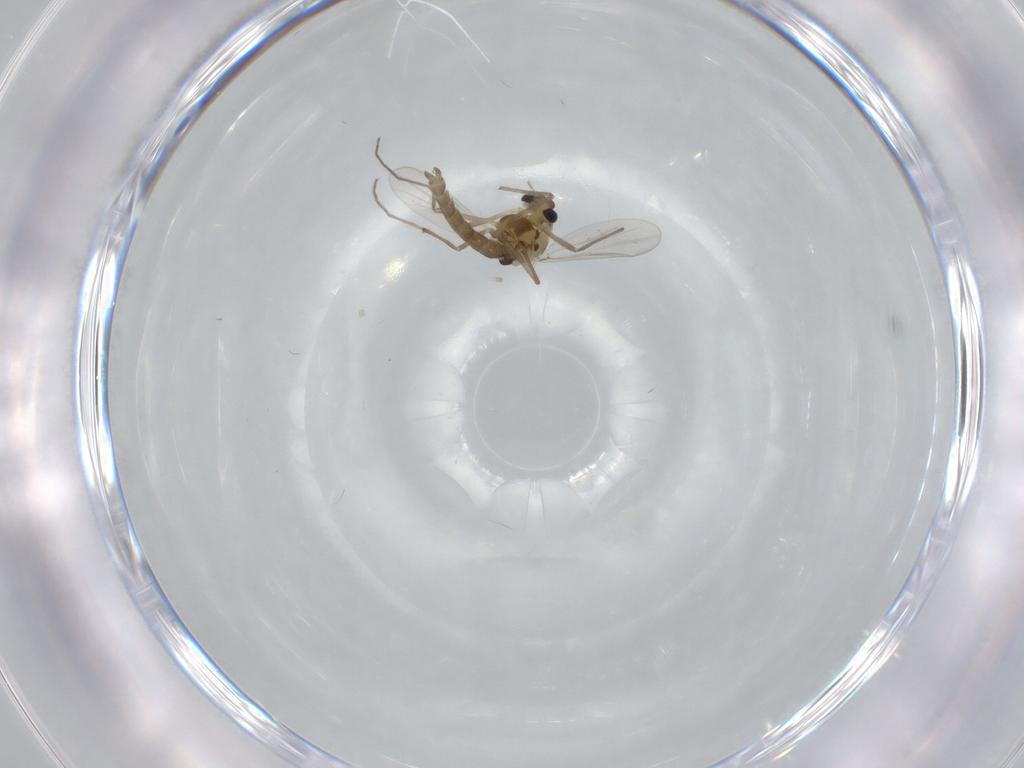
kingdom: Animalia
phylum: Arthropoda
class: Insecta
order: Diptera
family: Chironomidae
